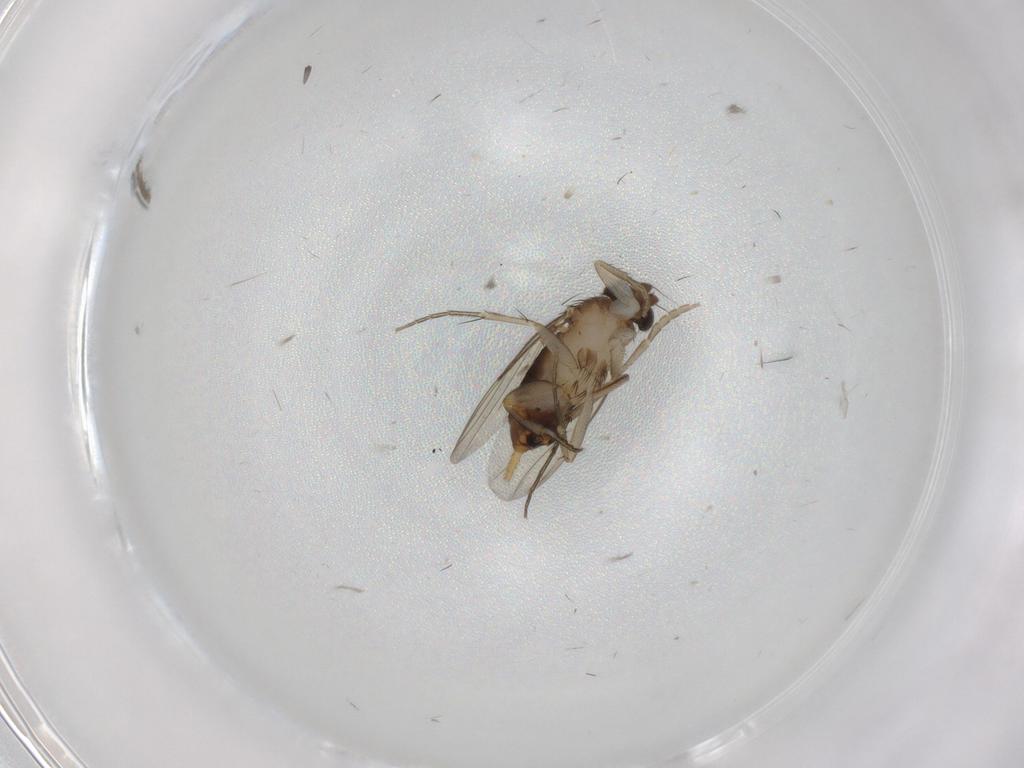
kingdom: Animalia
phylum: Arthropoda
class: Insecta
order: Diptera
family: Phoridae
